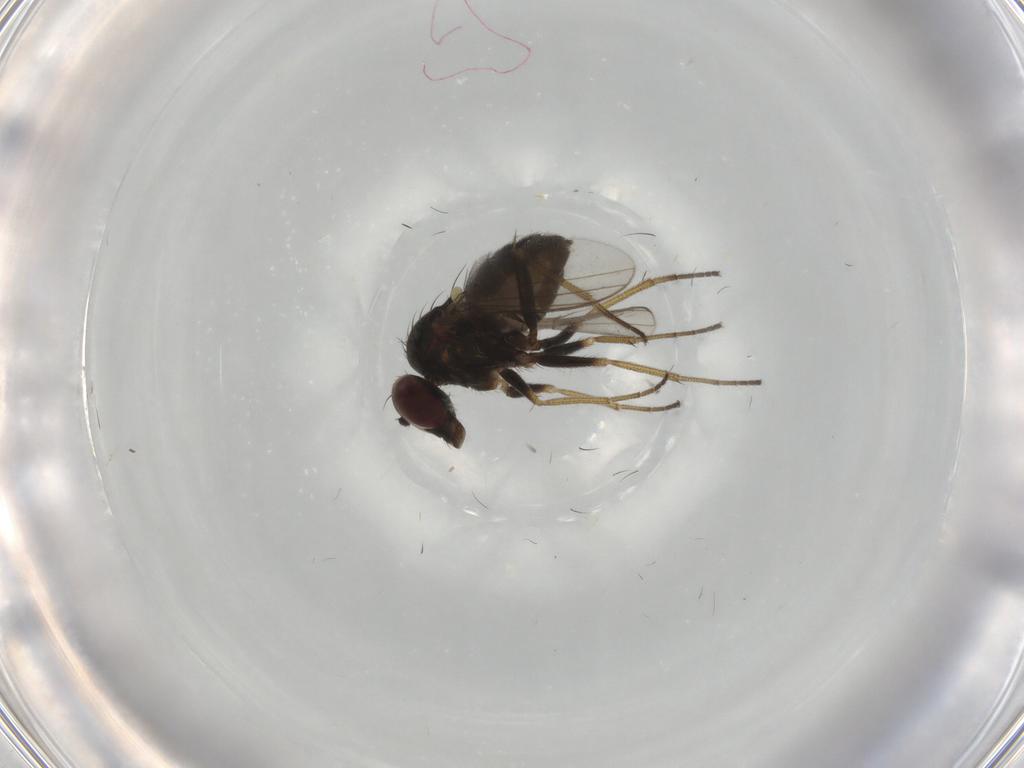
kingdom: Animalia
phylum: Arthropoda
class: Insecta
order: Diptera
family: Dolichopodidae
